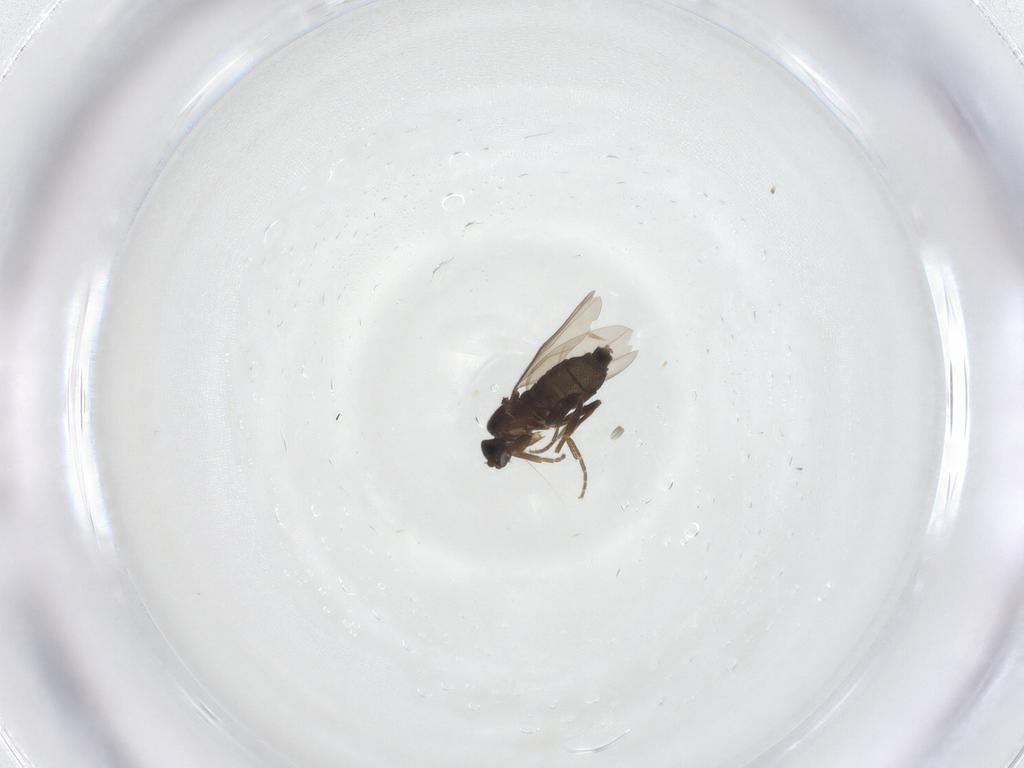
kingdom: Animalia
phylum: Arthropoda
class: Insecta
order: Diptera
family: Phoridae
